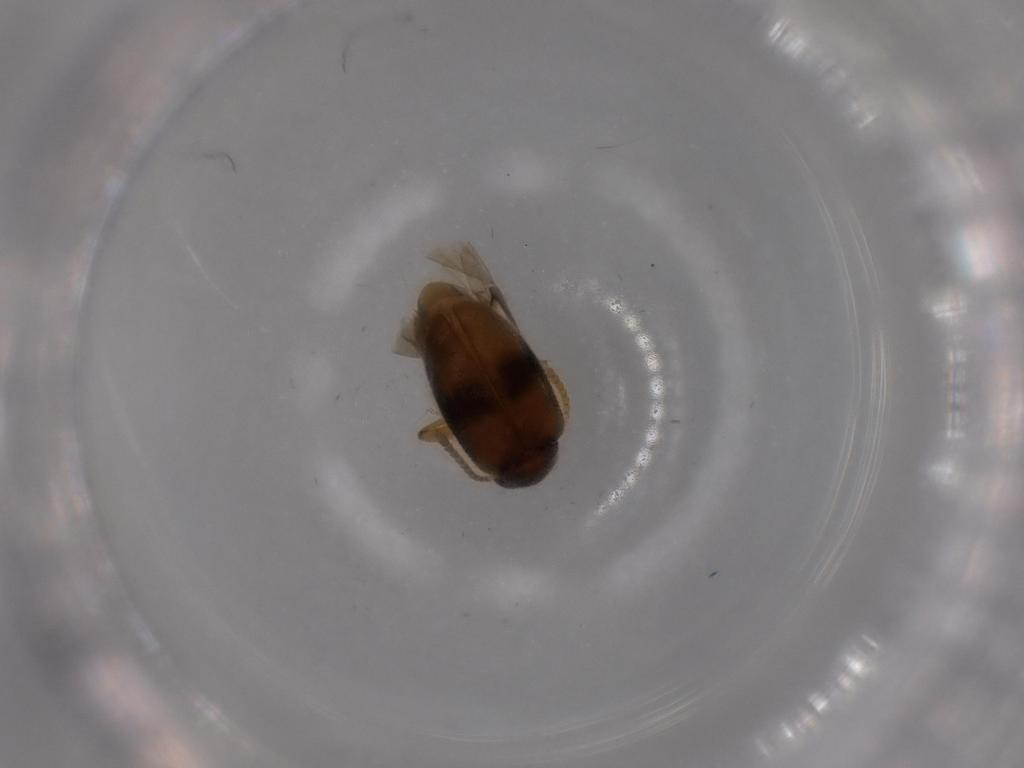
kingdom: Animalia
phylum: Arthropoda
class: Insecta
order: Coleoptera
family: Aderidae
